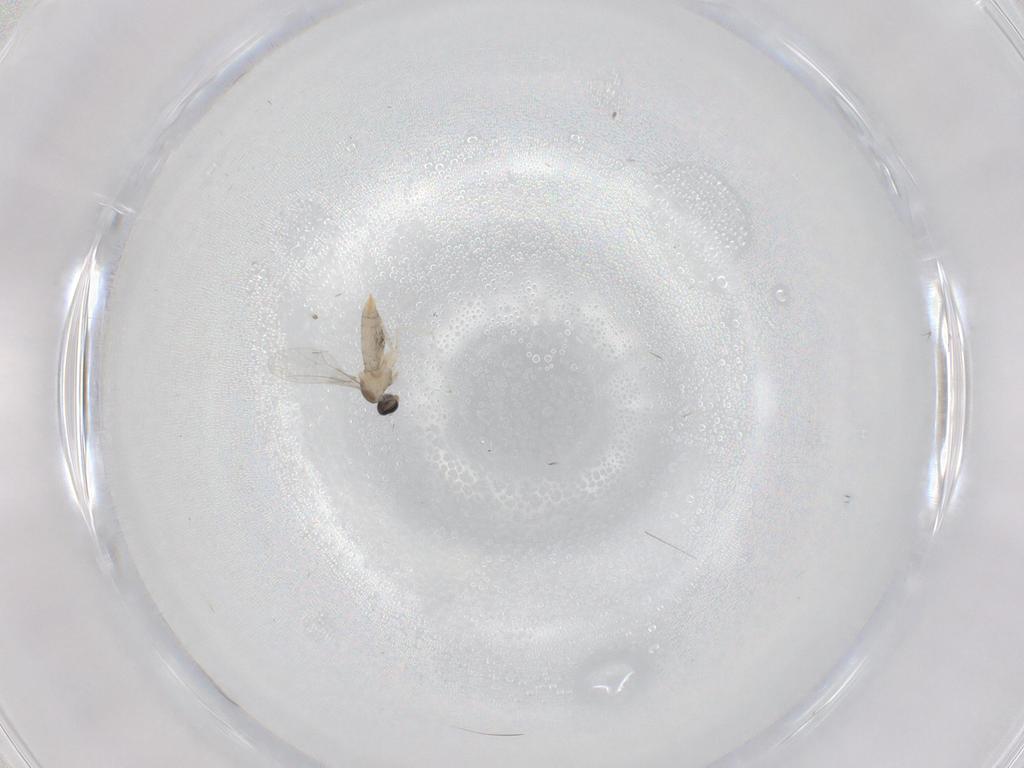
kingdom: Animalia
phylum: Arthropoda
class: Insecta
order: Diptera
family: Cecidomyiidae
